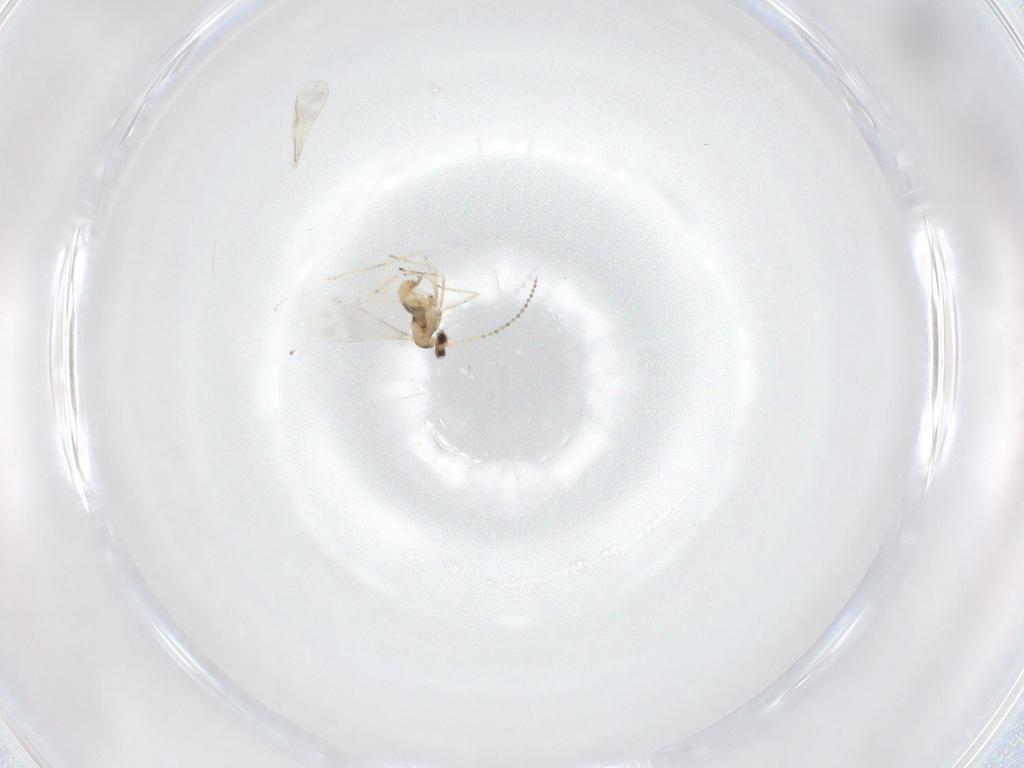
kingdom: Animalia
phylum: Arthropoda
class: Insecta
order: Diptera
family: Cecidomyiidae
